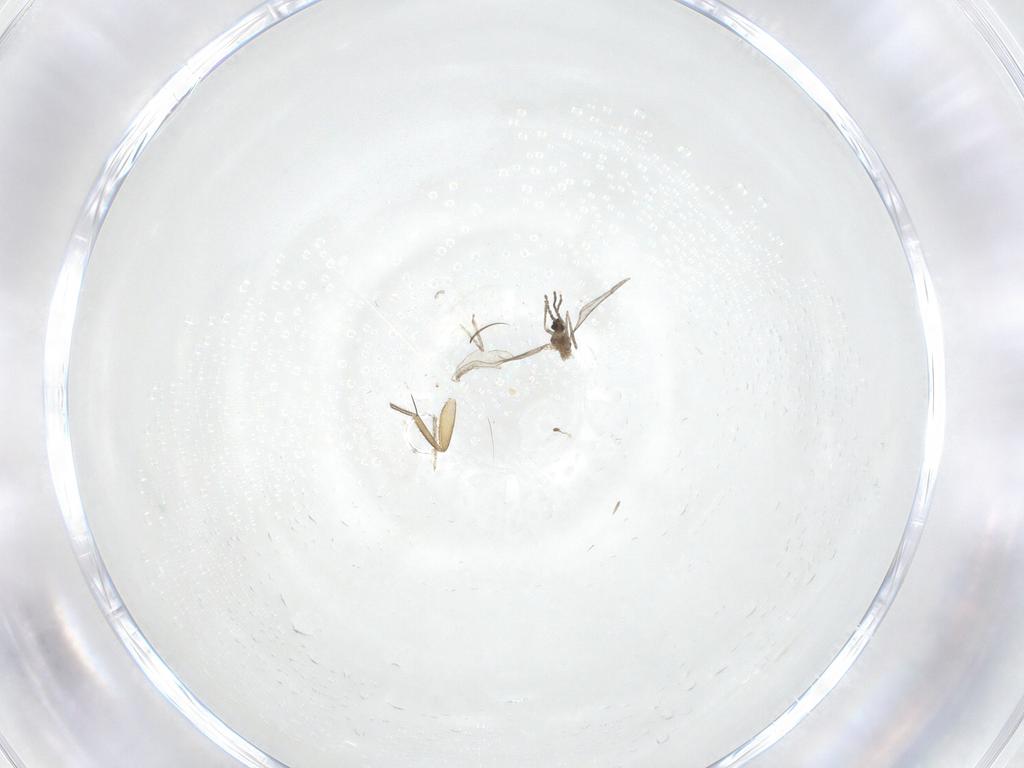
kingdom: Animalia
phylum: Arthropoda
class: Insecta
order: Diptera
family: Cecidomyiidae
